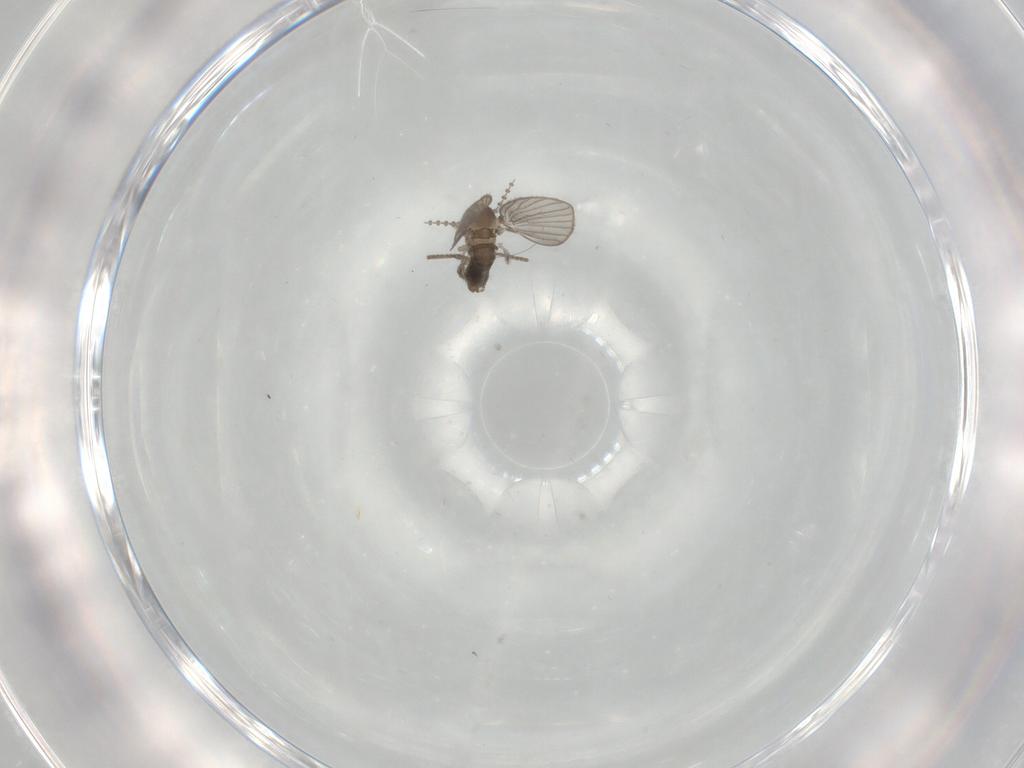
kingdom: Animalia
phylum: Arthropoda
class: Insecta
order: Diptera
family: Psychodidae
